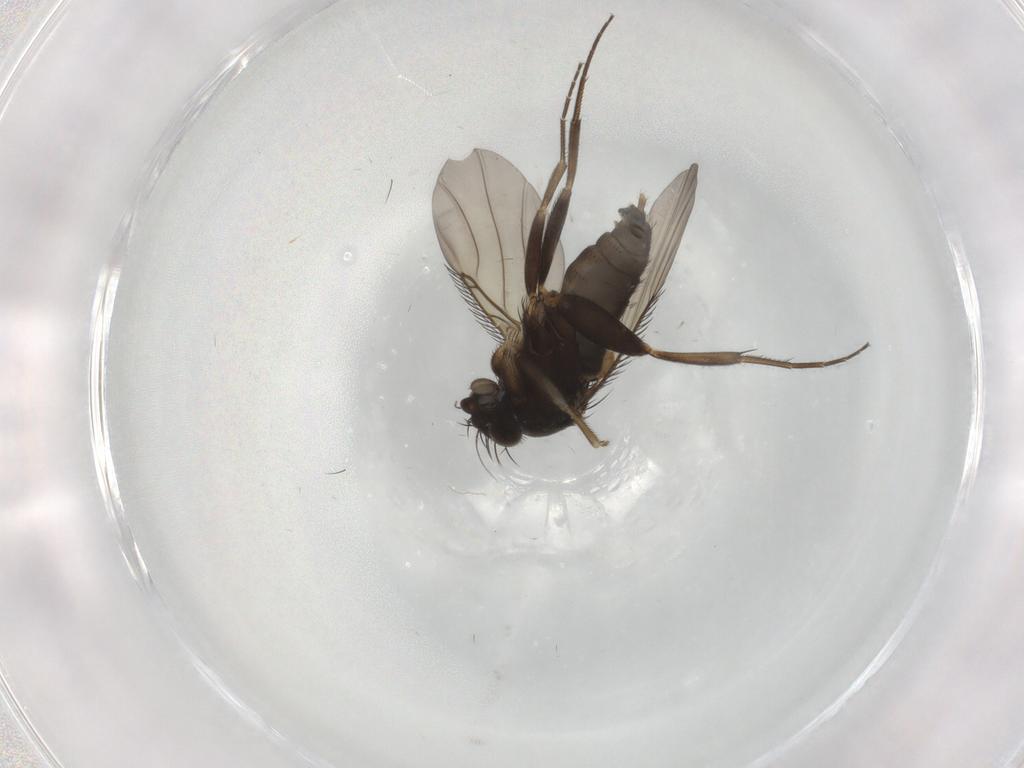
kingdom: Animalia
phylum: Arthropoda
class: Insecta
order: Diptera
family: Phoridae
